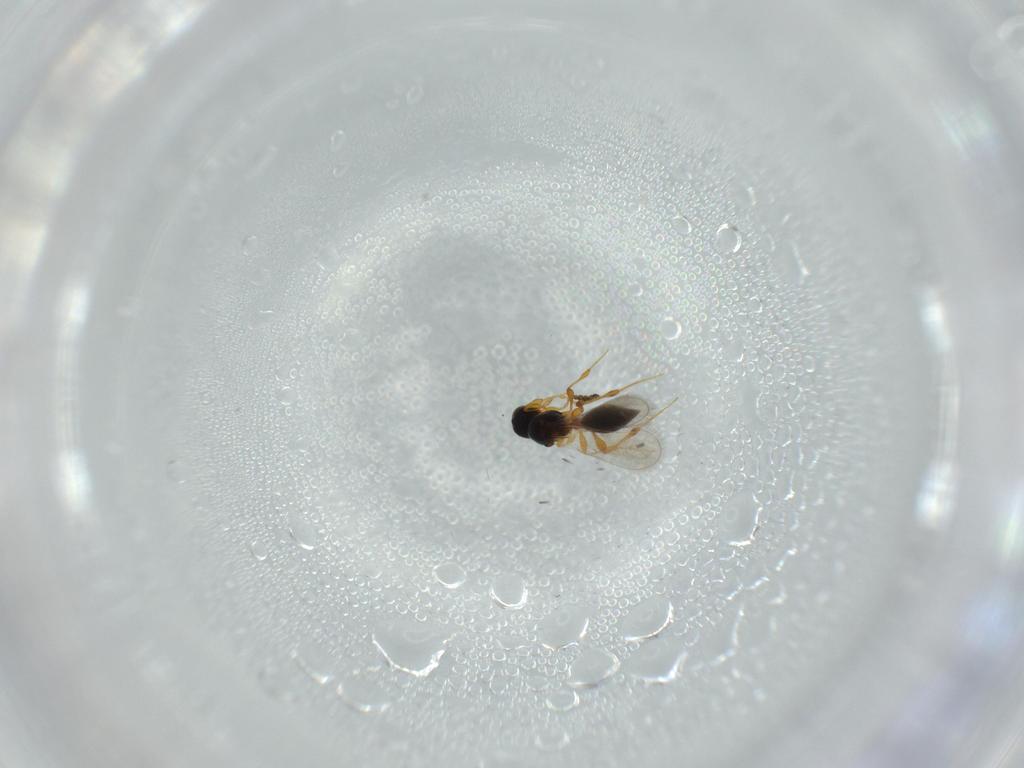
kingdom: Animalia
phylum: Arthropoda
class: Insecta
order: Hymenoptera
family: Platygastridae
